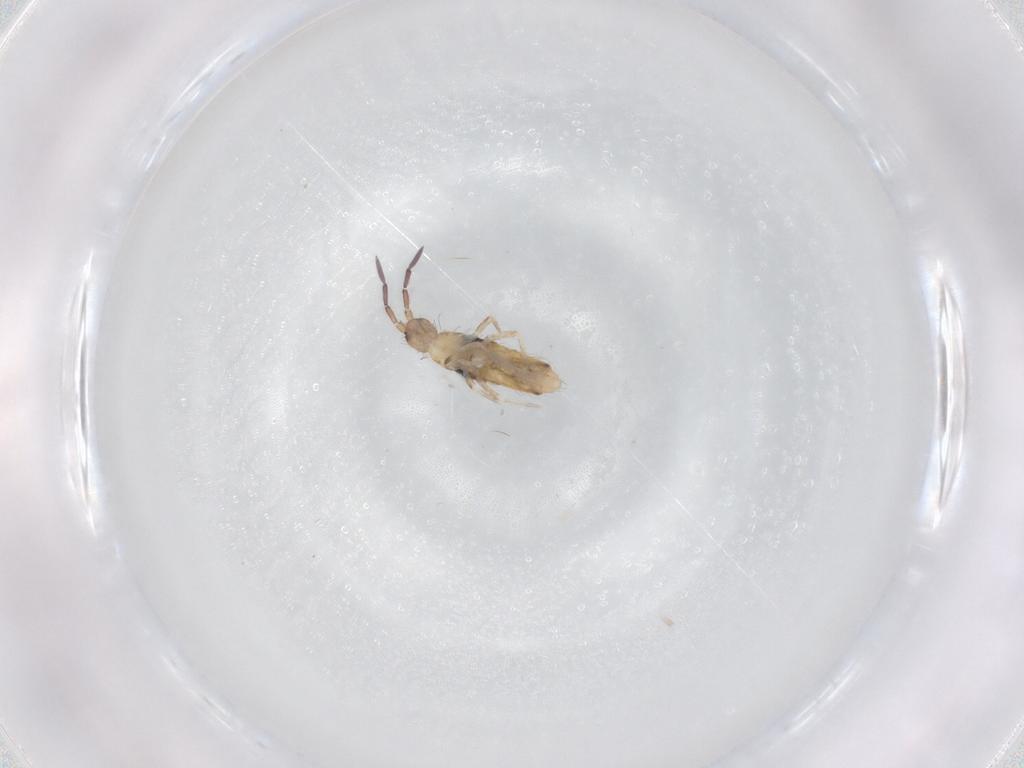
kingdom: Animalia
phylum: Arthropoda
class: Collembola
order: Entomobryomorpha
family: Entomobryidae
